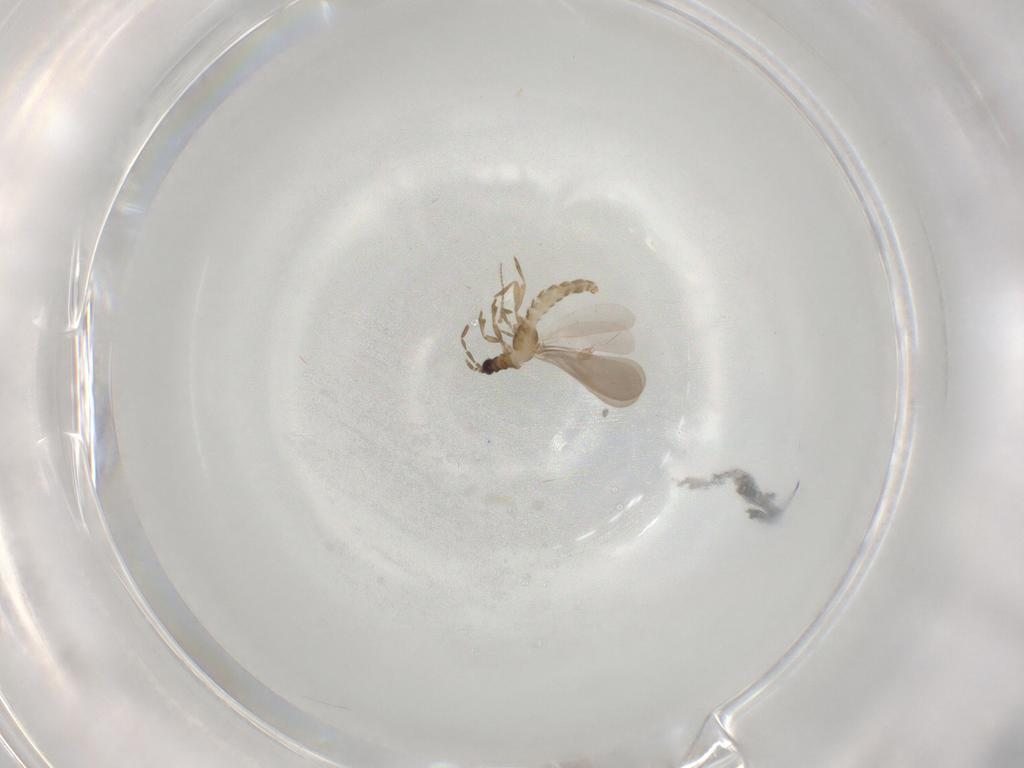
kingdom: Animalia
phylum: Arthropoda
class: Insecta
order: Hemiptera
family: Enicocephalidae
